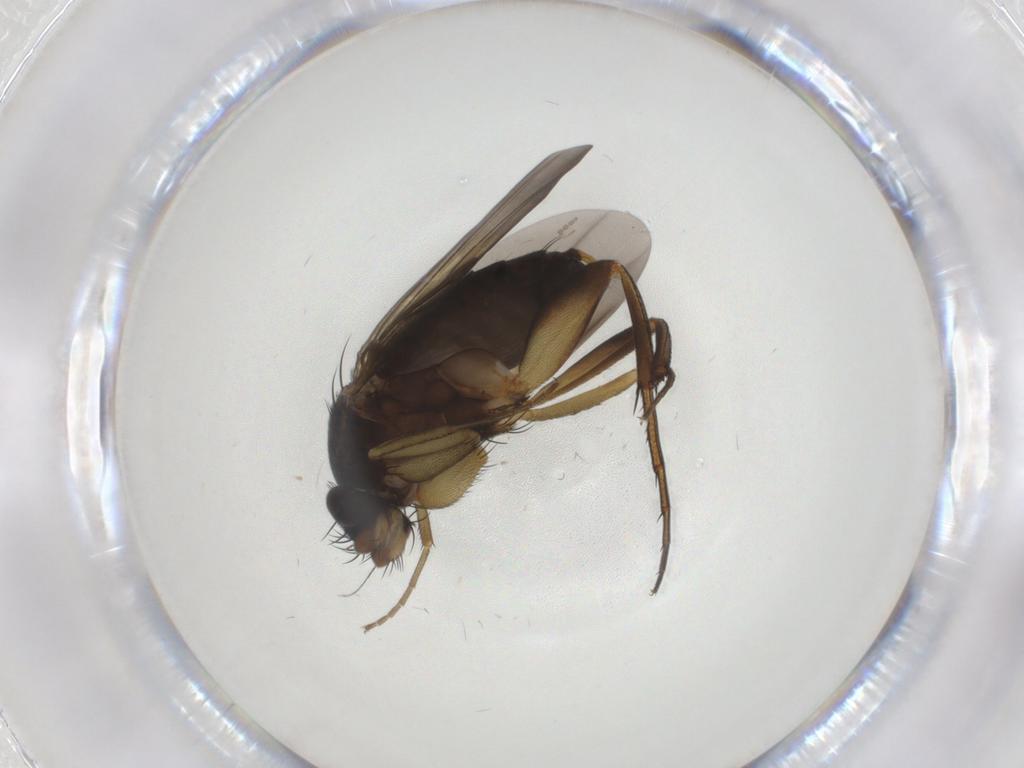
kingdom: Animalia
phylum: Arthropoda
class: Insecta
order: Diptera
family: Phoridae
